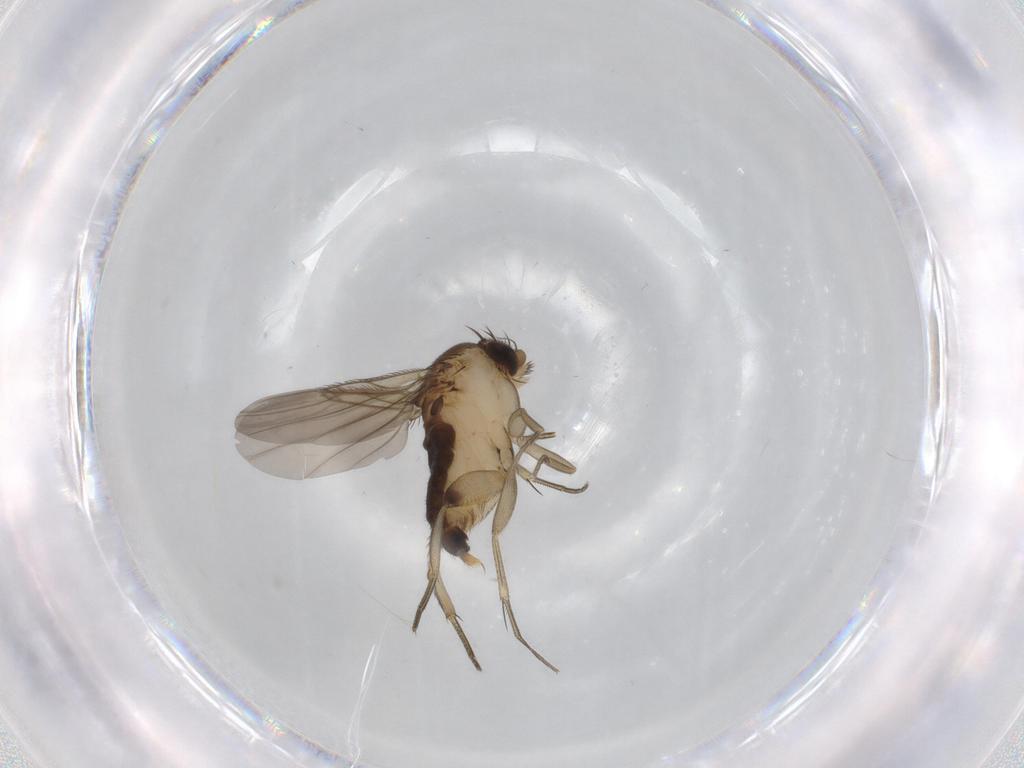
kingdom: Animalia
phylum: Arthropoda
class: Insecta
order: Diptera
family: Phoridae
